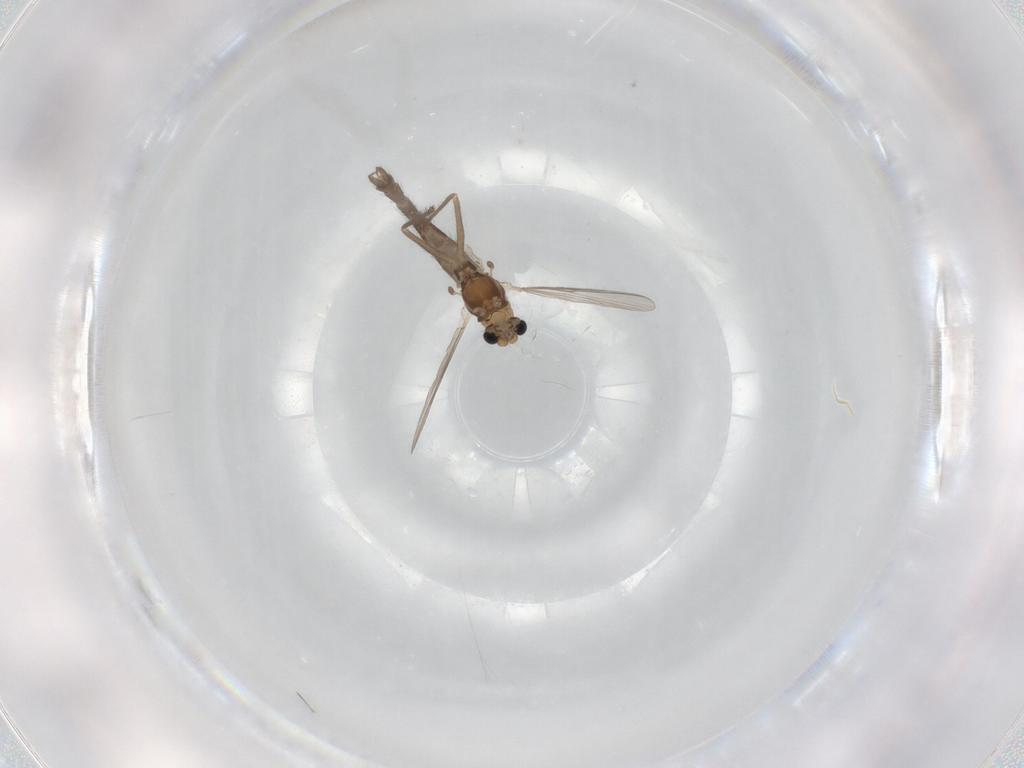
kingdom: Animalia
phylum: Arthropoda
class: Insecta
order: Diptera
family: Chironomidae
